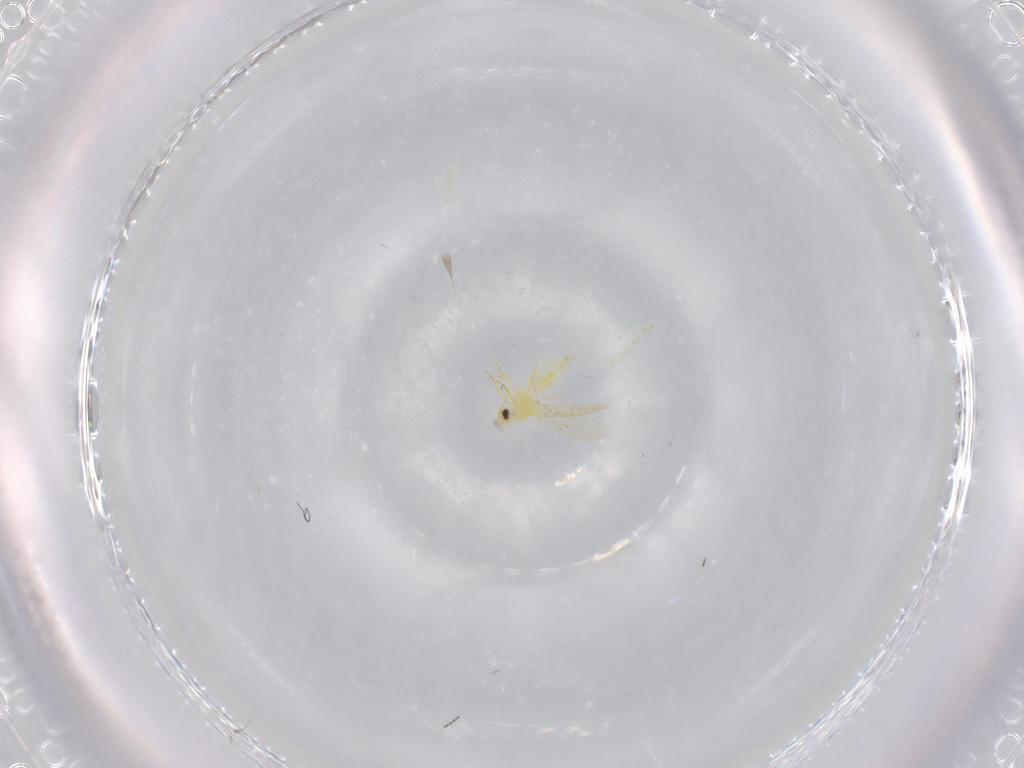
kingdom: Animalia
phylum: Arthropoda
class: Insecta
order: Hemiptera
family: Aleyrodidae
